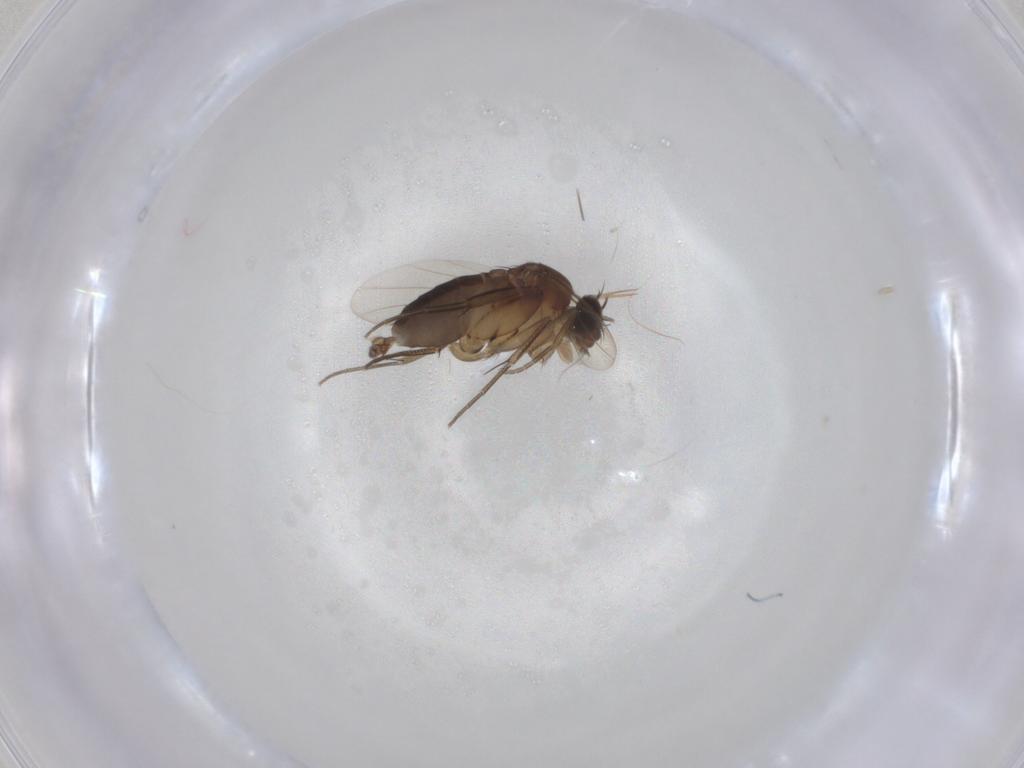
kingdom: Animalia
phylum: Arthropoda
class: Insecta
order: Diptera
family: Phoridae
